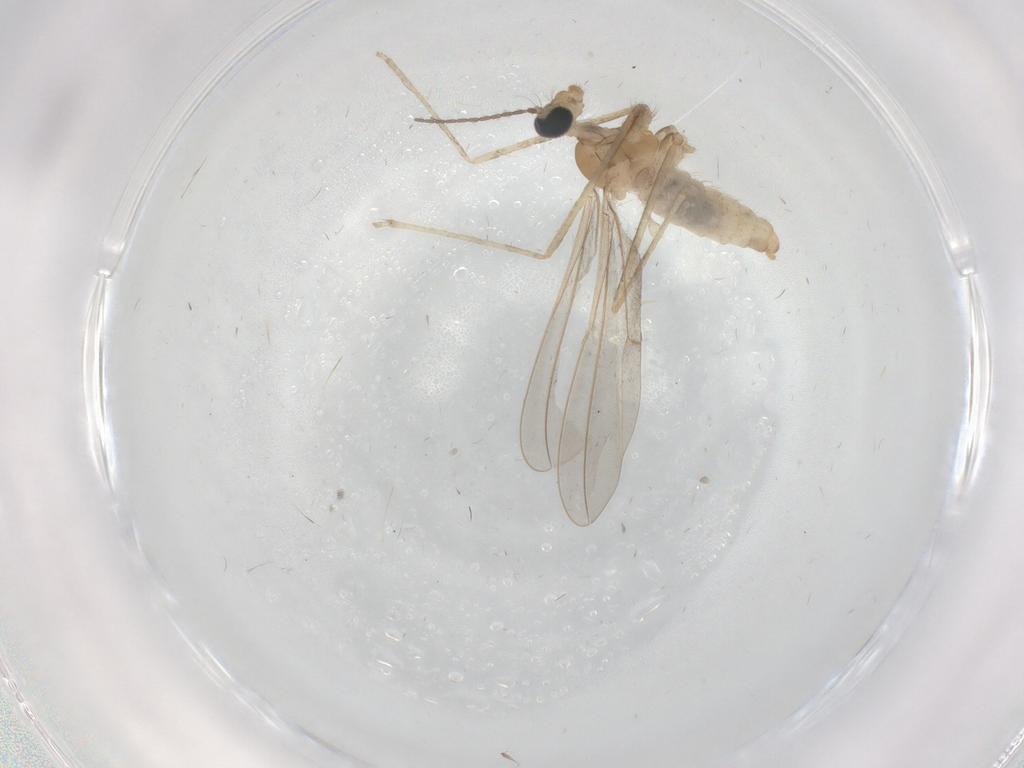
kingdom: Animalia
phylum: Arthropoda
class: Insecta
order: Diptera
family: Cecidomyiidae
